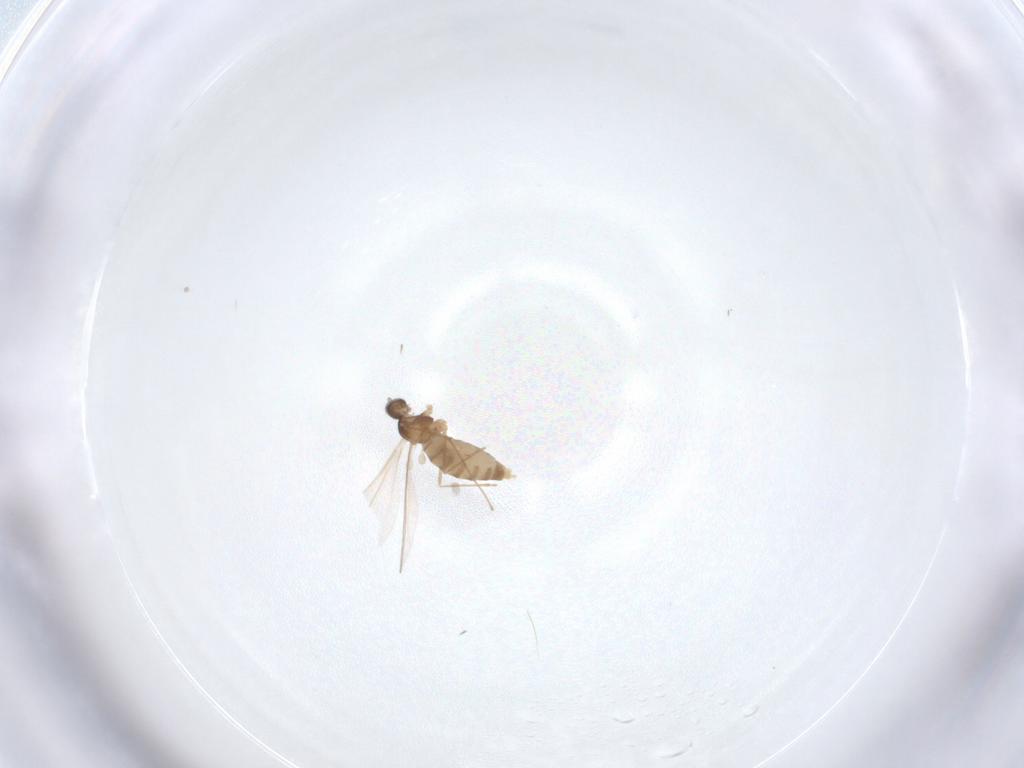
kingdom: Animalia
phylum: Arthropoda
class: Insecta
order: Diptera
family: Cecidomyiidae
